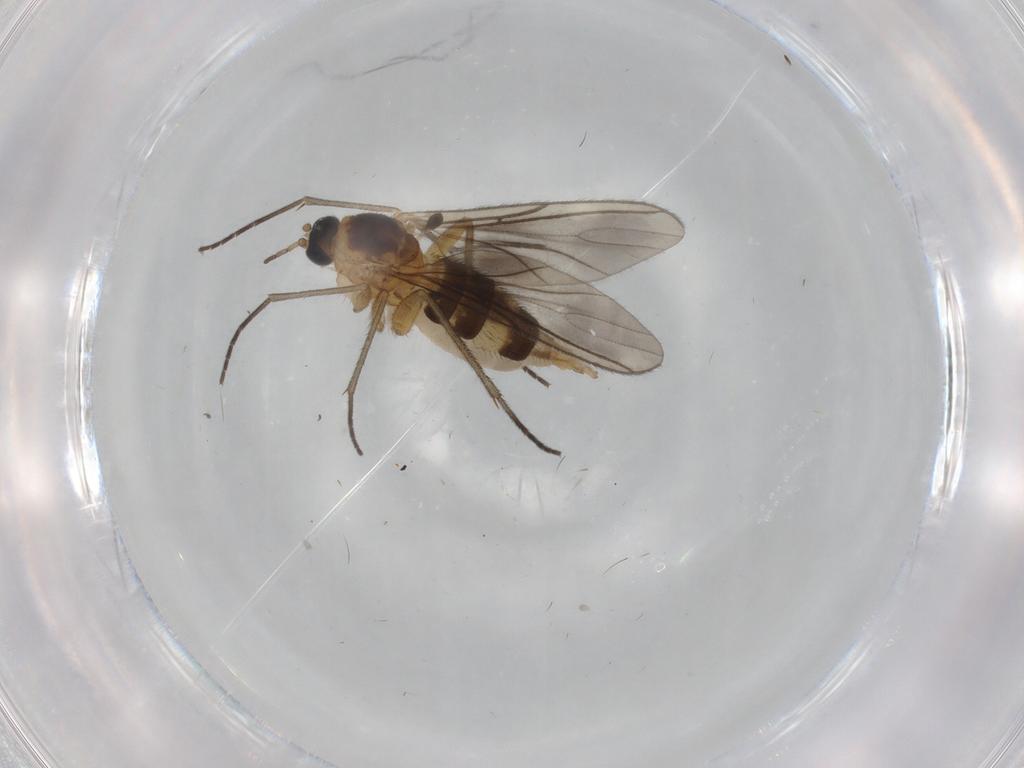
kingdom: Animalia
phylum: Arthropoda
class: Insecta
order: Diptera
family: Sciaridae
